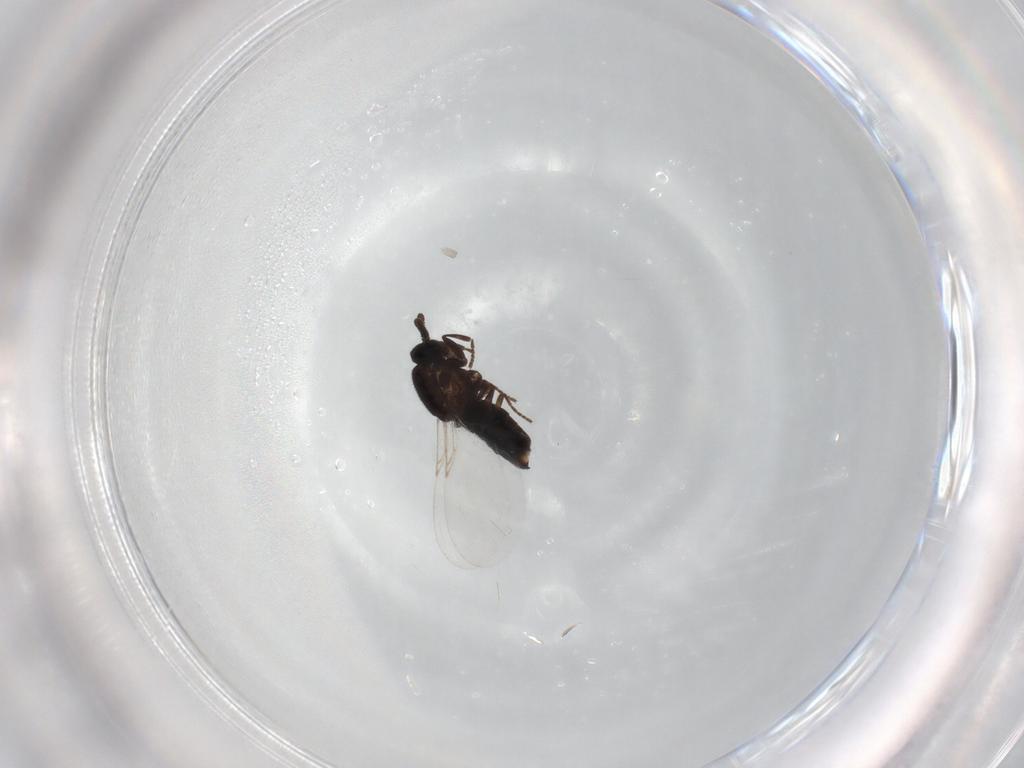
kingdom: Animalia
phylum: Arthropoda
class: Insecta
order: Diptera
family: Scatopsidae
